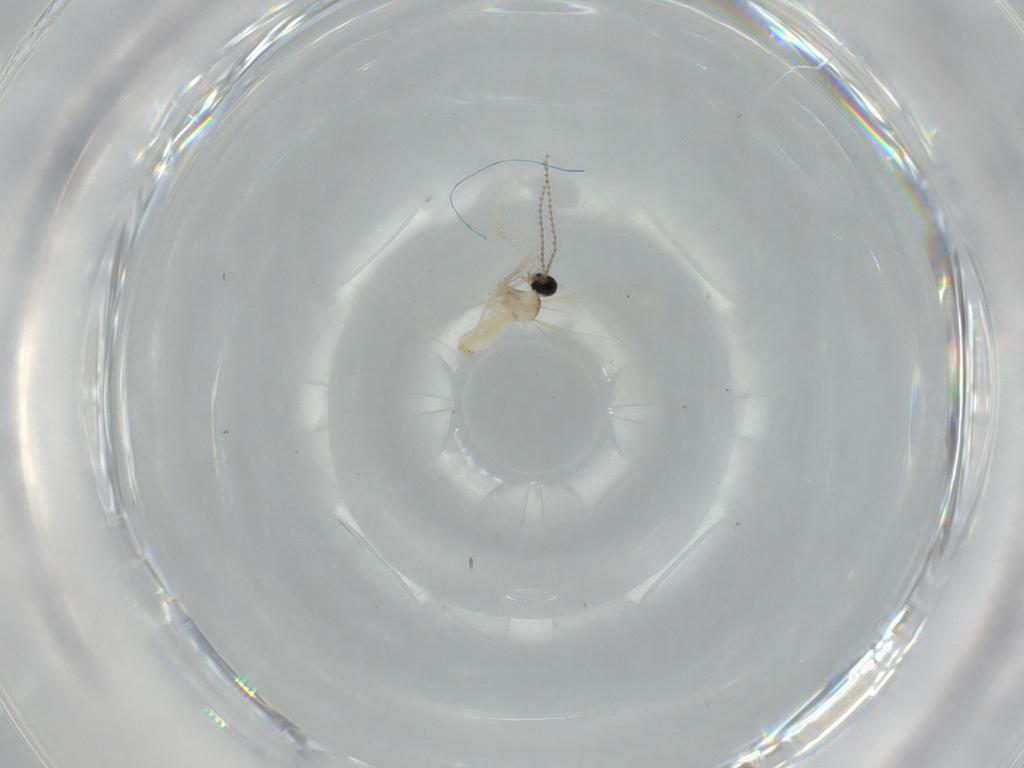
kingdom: Animalia
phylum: Arthropoda
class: Insecta
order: Diptera
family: Cecidomyiidae
